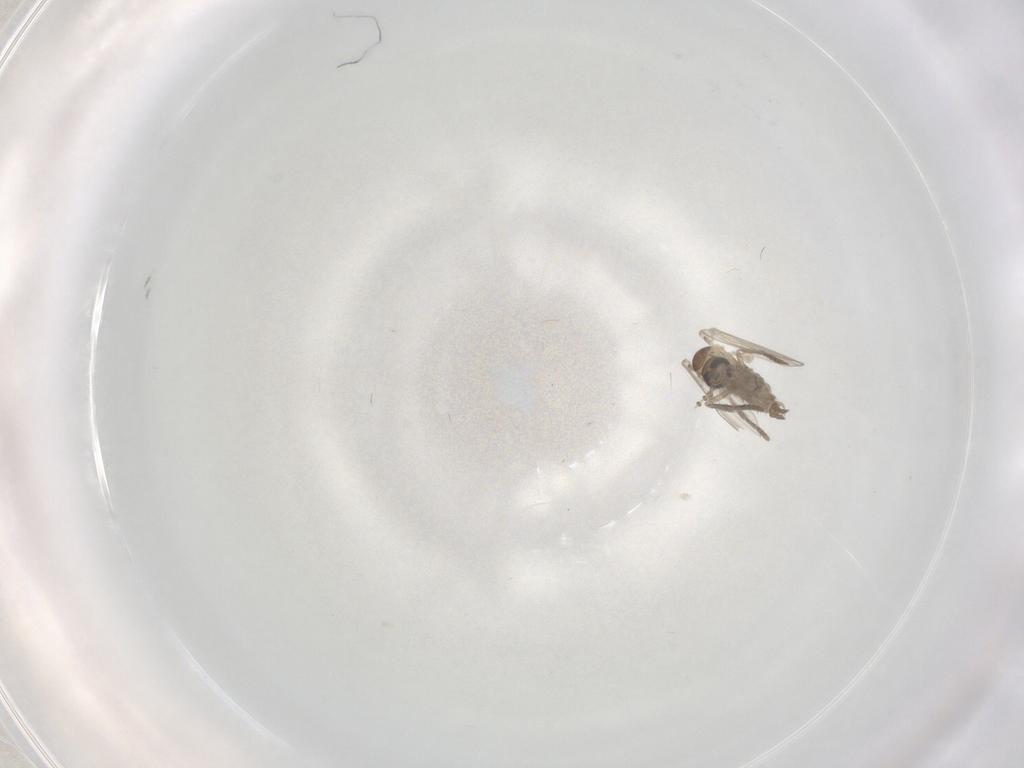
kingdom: Animalia
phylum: Arthropoda
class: Insecta
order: Diptera
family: Psychodidae
